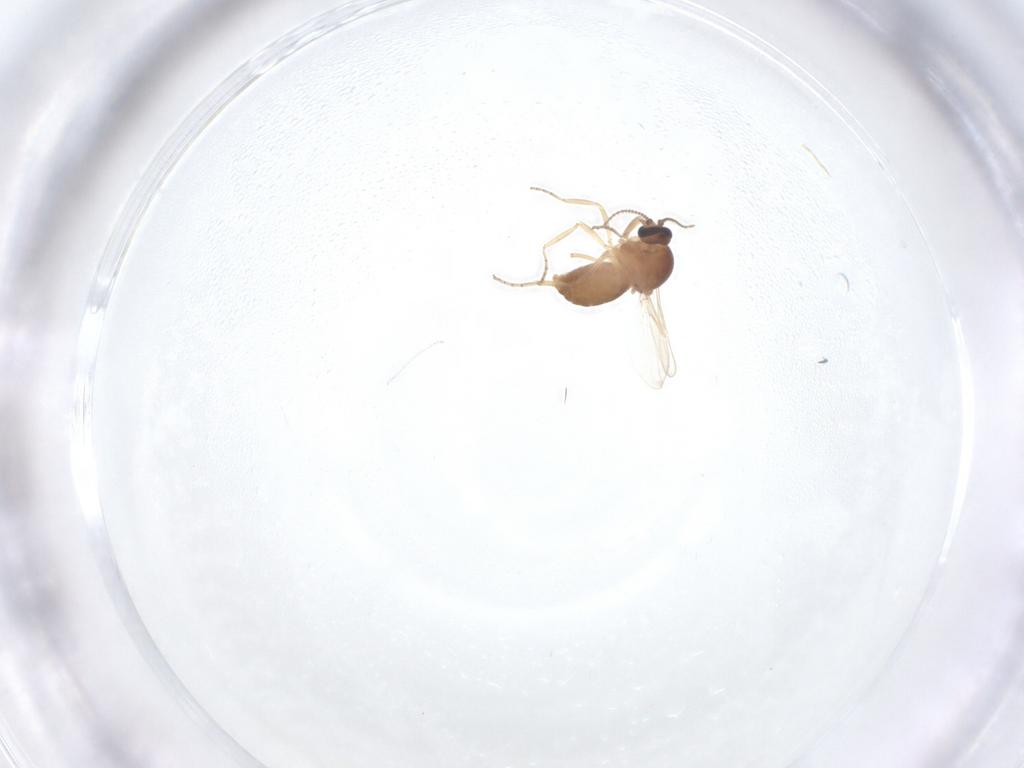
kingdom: Animalia
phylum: Arthropoda
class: Insecta
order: Diptera
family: Ceratopogonidae
